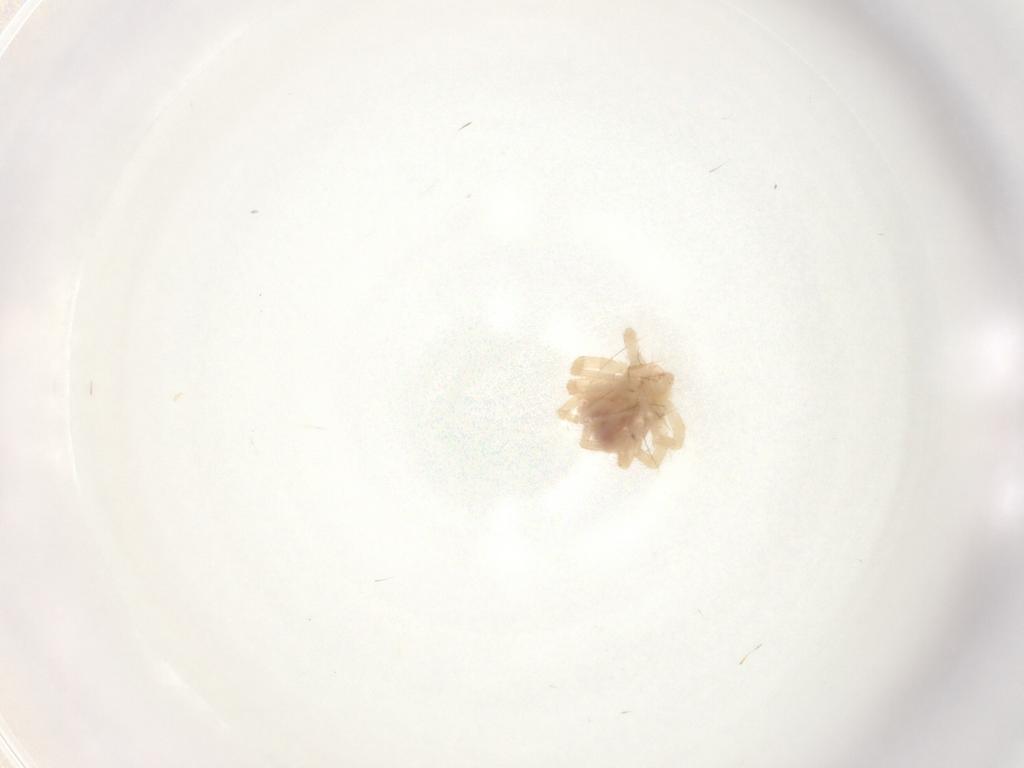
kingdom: Animalia
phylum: Arthropoda
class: Arachnida
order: Trombidiformes
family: Anystidae
